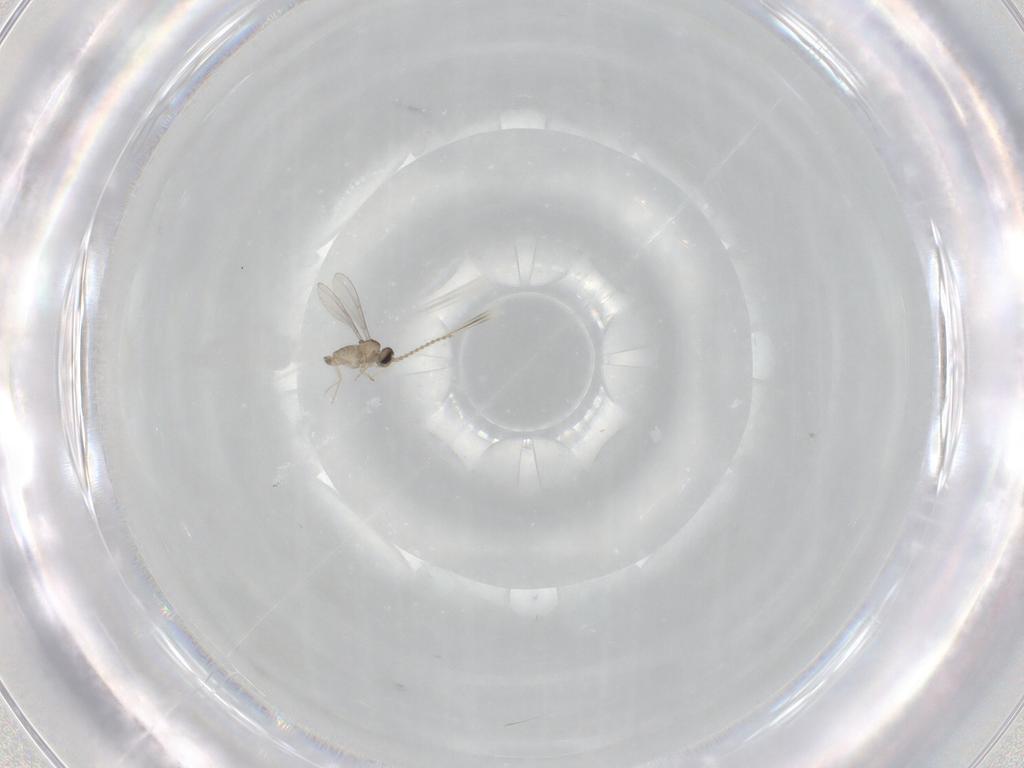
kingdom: Animalia
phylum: Arthropoda
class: Insecta
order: Diptera
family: Cecidomyiidae
